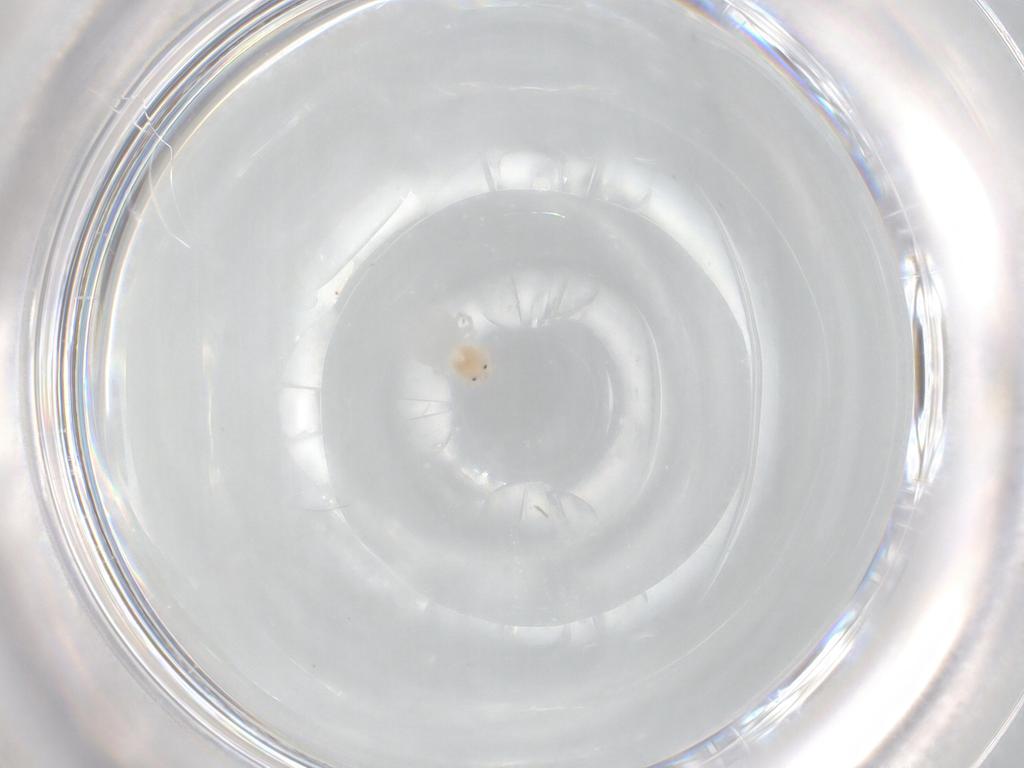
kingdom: Animalia
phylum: Arthropoda
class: Arachnida
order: Trombidiformes
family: Lebertiidae
